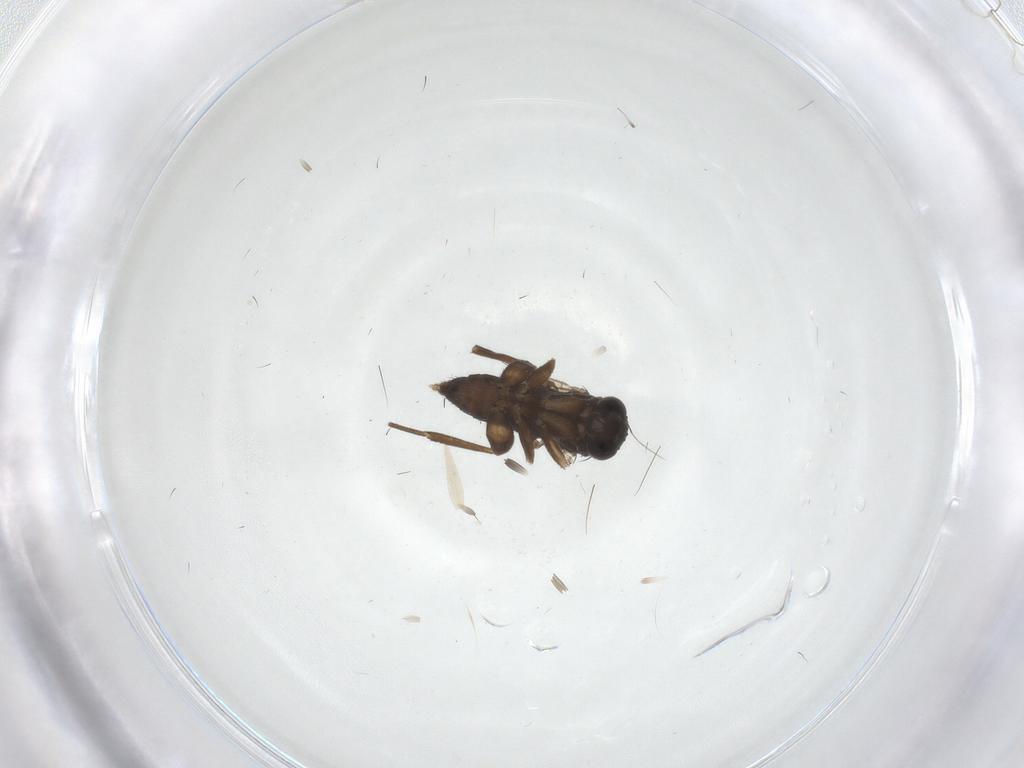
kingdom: Animalia
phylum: Arthropoda
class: Insecta
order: Diptera
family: Phoridae
